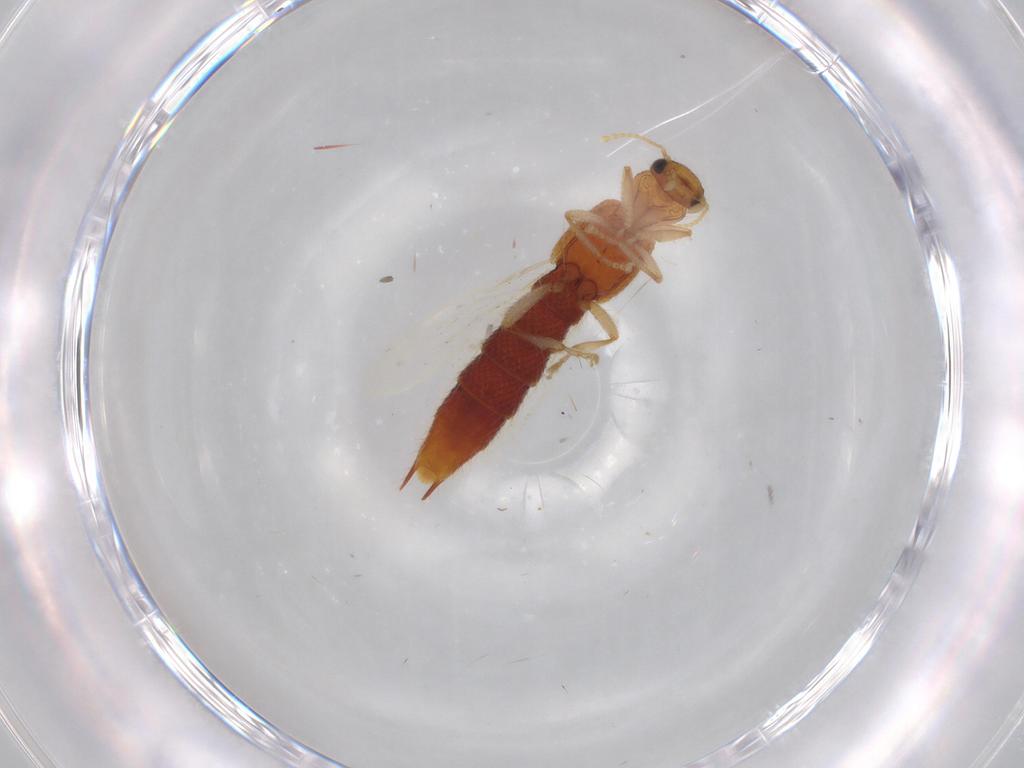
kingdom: Animalia
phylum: Arthropoda
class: Insecta
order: Coleoptera
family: Staphylinidae
